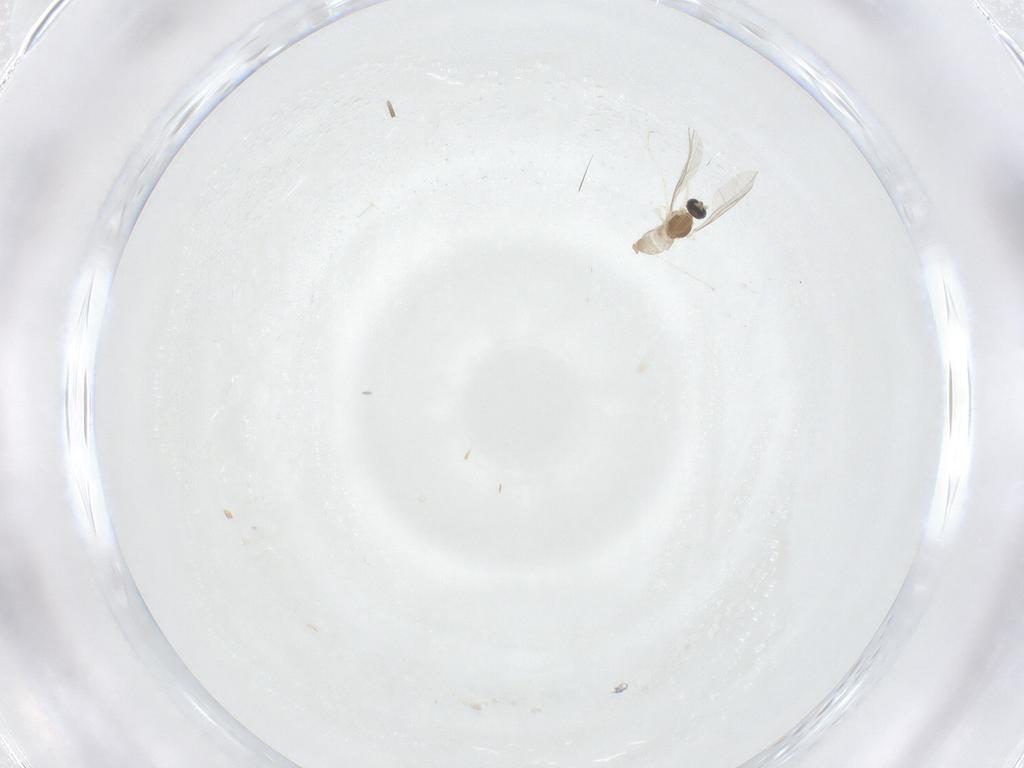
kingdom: Animalia
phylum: Arthropoda
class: Insecta
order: Diptera
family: Cecidomyiidae
